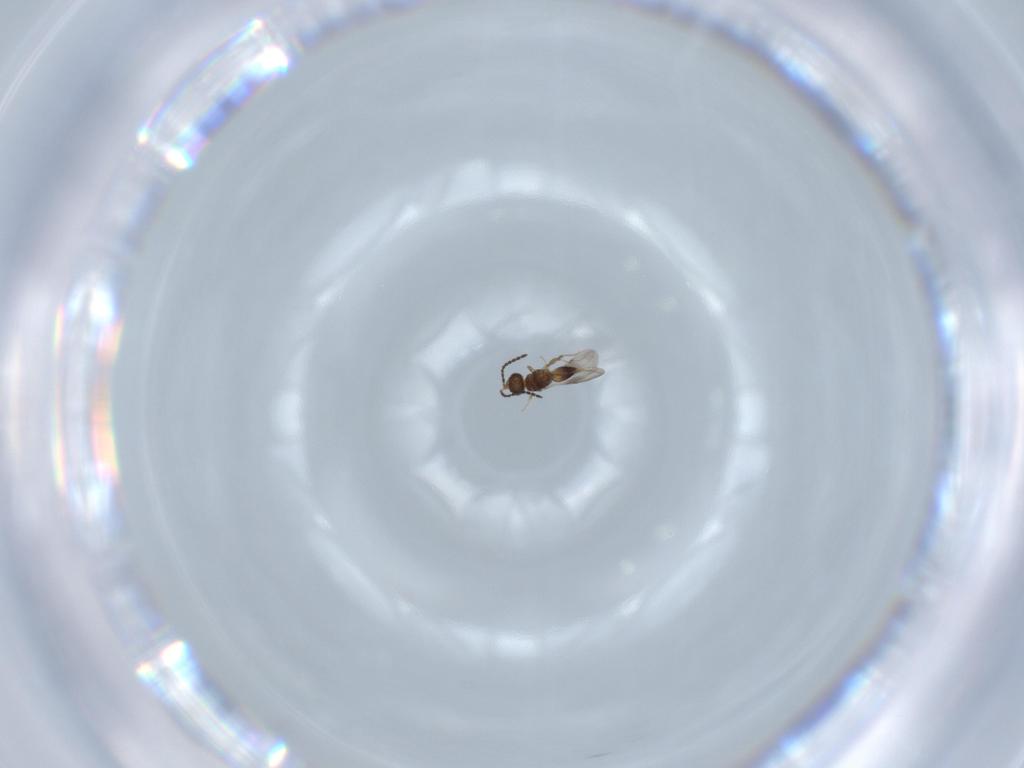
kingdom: Animalia
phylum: Arthropoda
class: Insecta
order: Hymenoptera
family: Ceraphronidae
